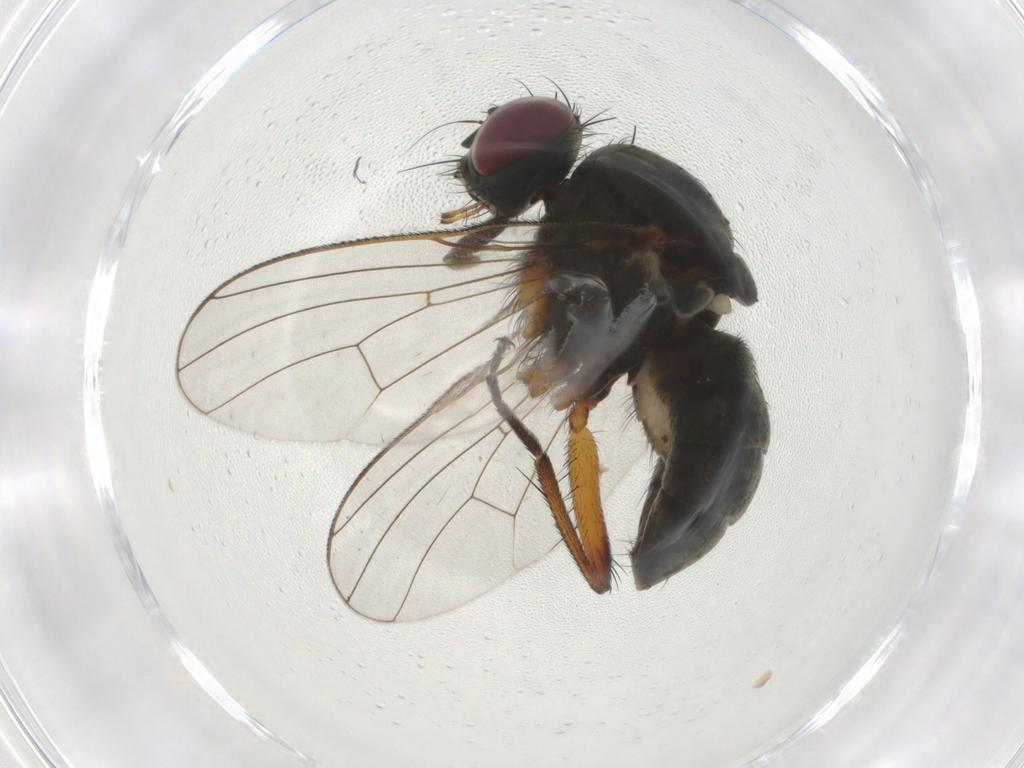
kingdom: Animalia
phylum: Arthropoda
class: Insecta
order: Diptera
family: Muscidae
